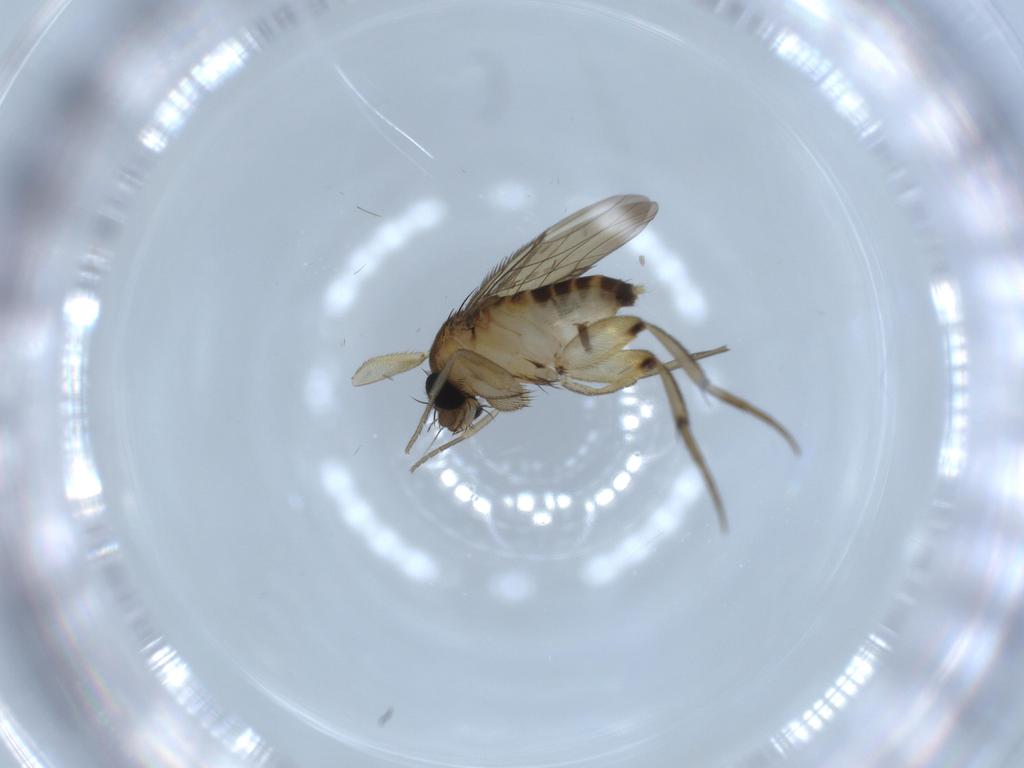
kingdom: Animalia
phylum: Arthropoda
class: Insecta
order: Diptera
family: Phoridae
